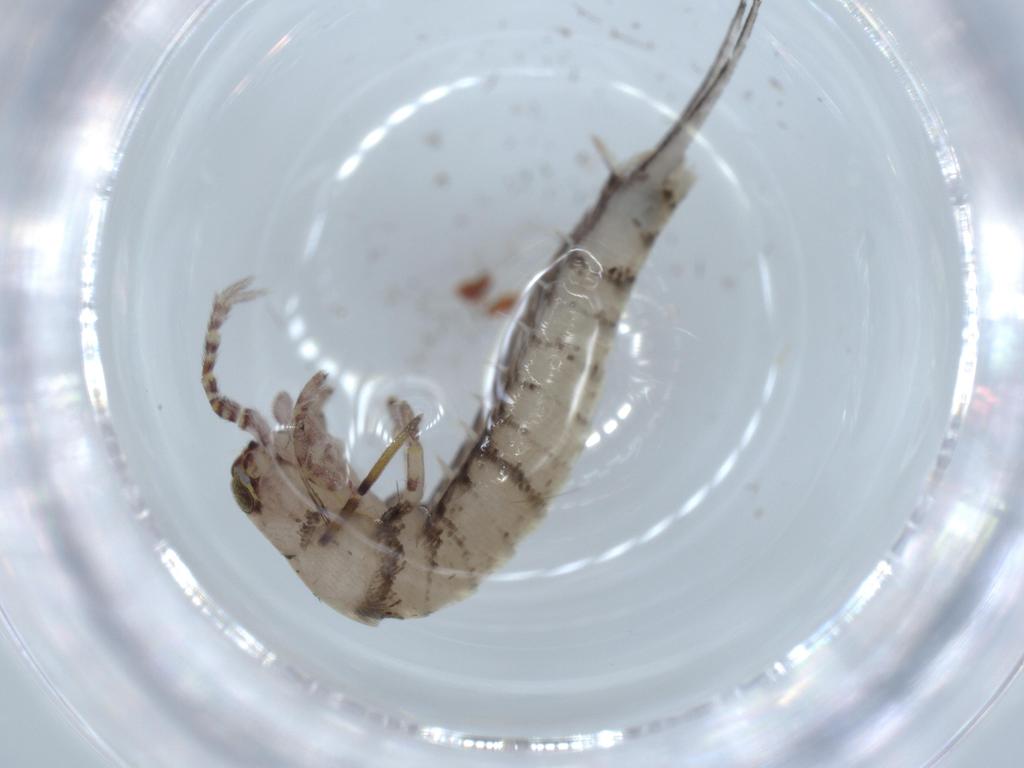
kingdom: Animalia
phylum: Arthropoda
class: Insecta
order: Archaeognatha
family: Machilidae
